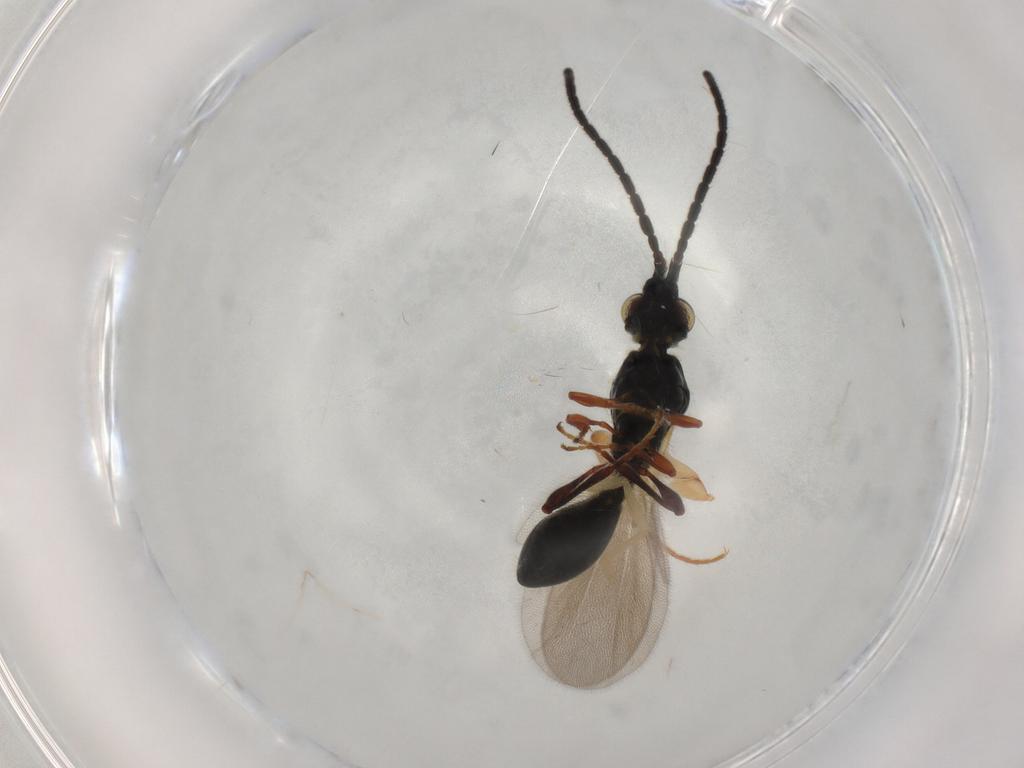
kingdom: Animalia
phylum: Arthropoda
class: Insecta
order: Hymenoptera
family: Diapriidae
